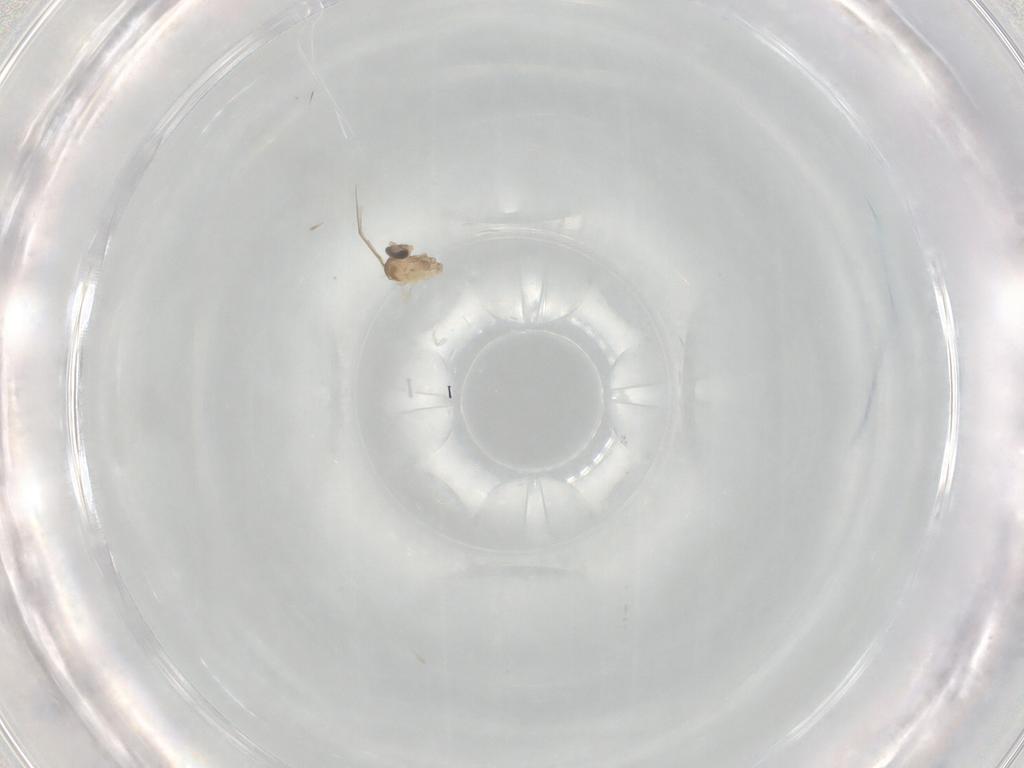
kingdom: Animalia
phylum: Arthropoda
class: Insecta
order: Diptera
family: Cecidomyiidae
